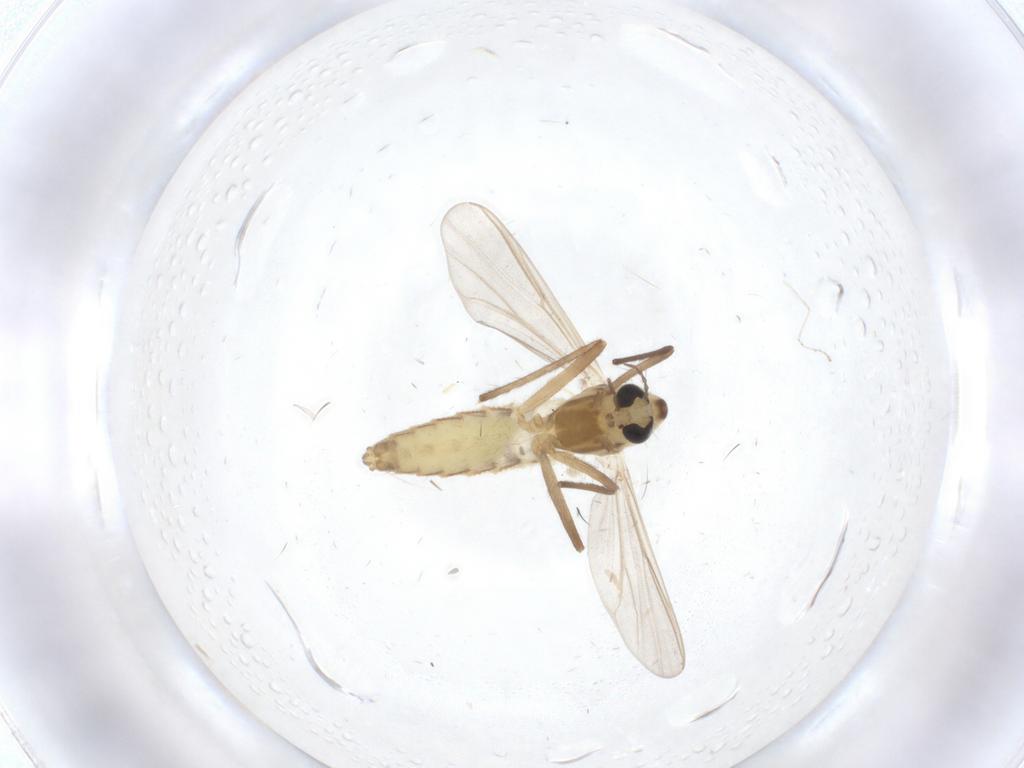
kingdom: Animalia
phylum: Arthropoda
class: Insecta
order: Diptera
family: Chironomidae
